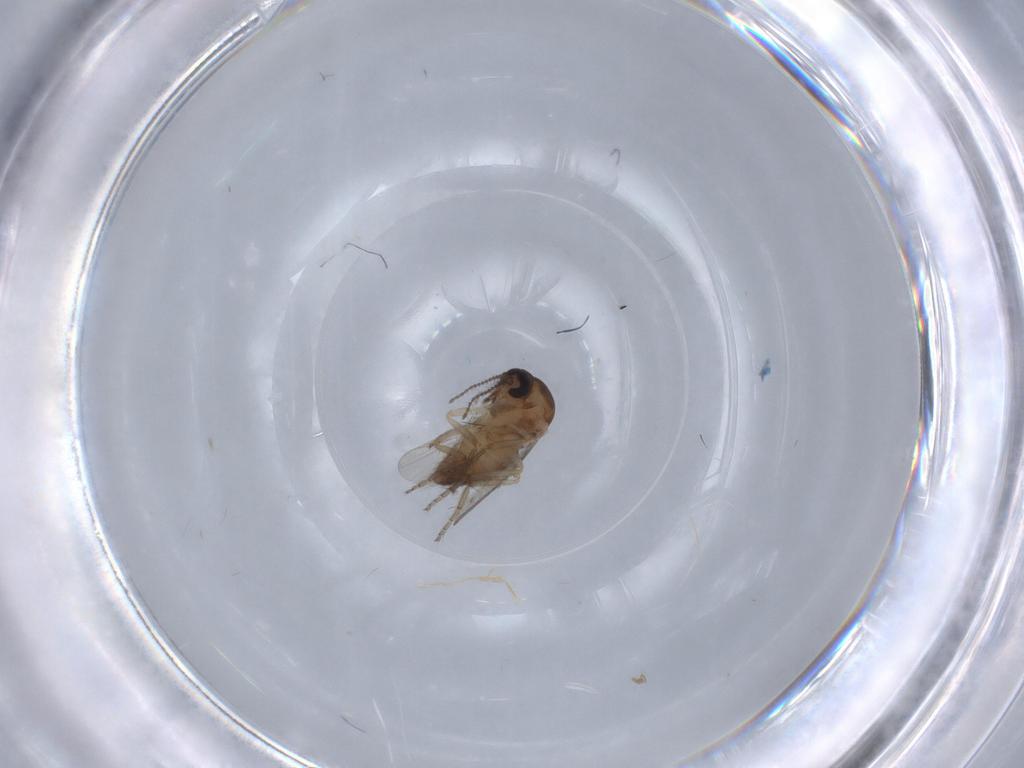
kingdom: Animalia
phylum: Arthropoda
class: Insecta
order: Diptera
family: Ceratopogonidae
